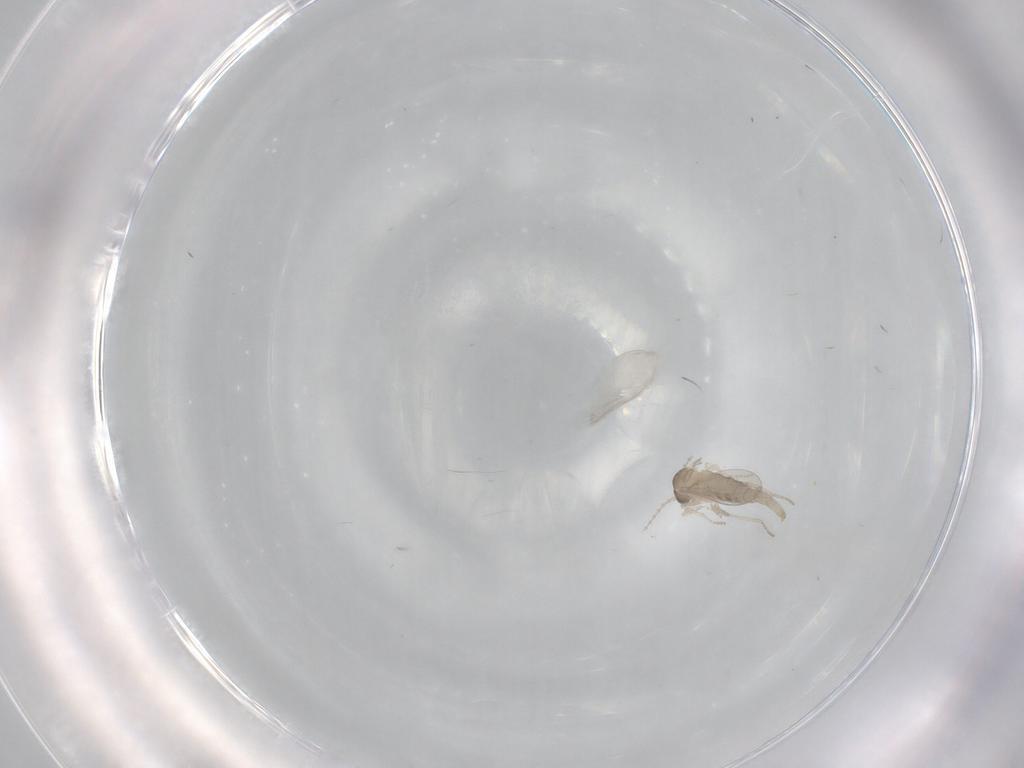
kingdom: Animalia
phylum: Arthropoda
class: Insecta
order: Diptera
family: Cecidomyiidae
